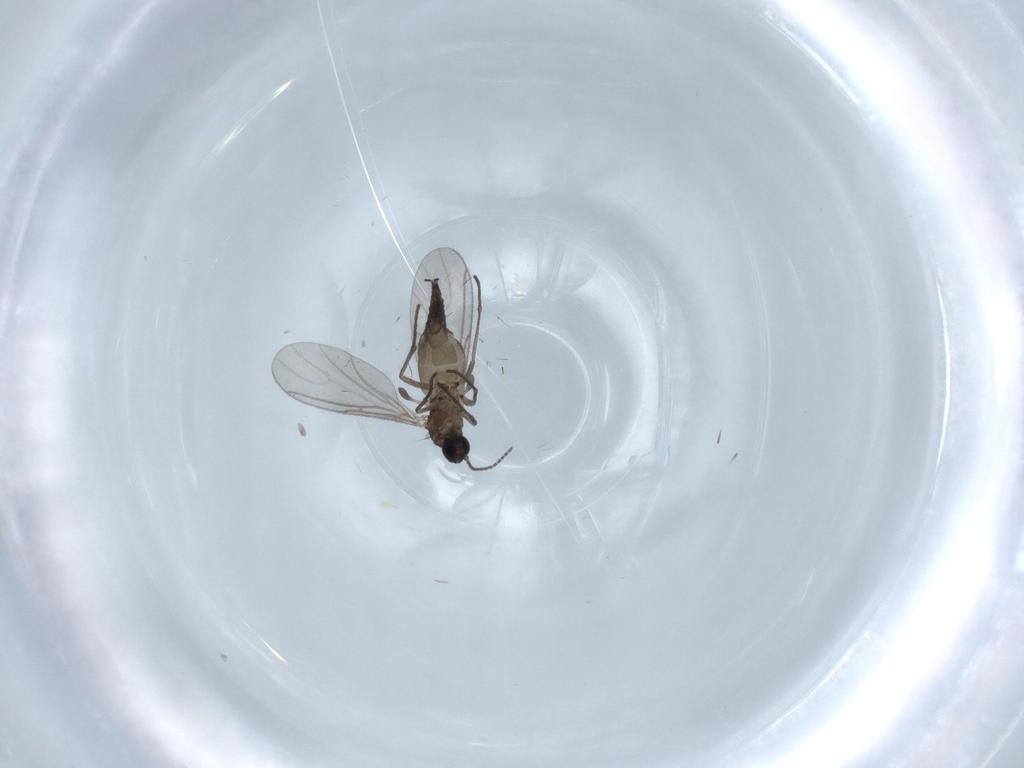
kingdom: Animalia
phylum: Arthropoda
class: Insecta
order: Diptera
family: Sciaridae
